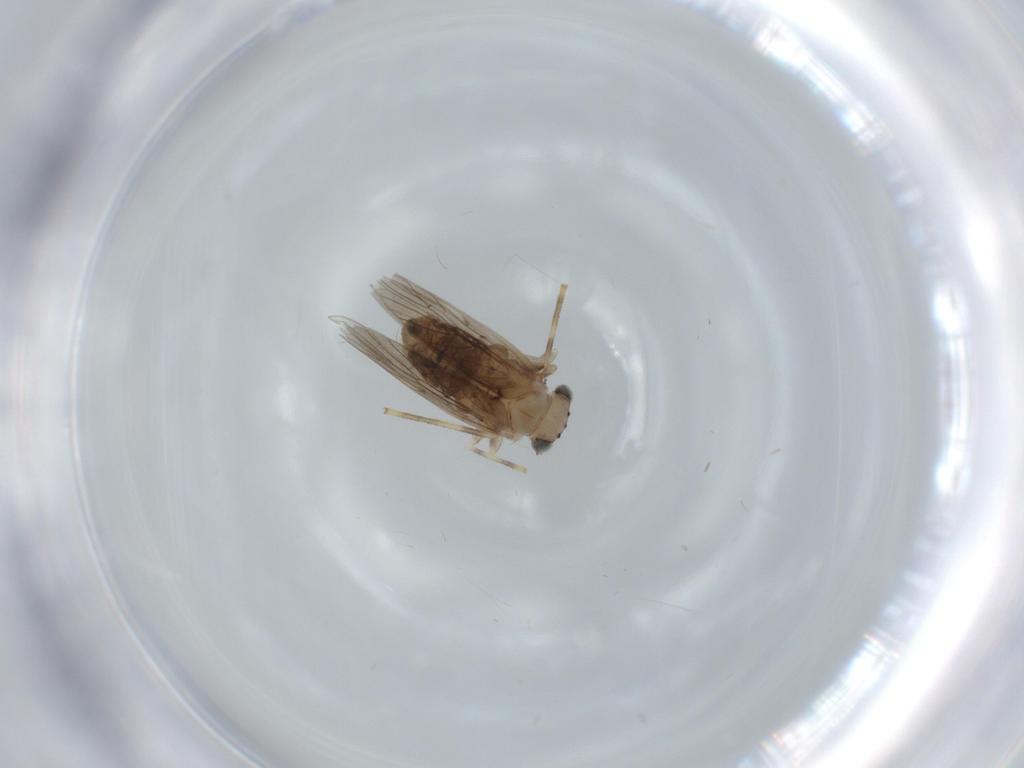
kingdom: Animalia
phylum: Arthropoda
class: Insecta
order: Psocodea
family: Lepidopsocidae
